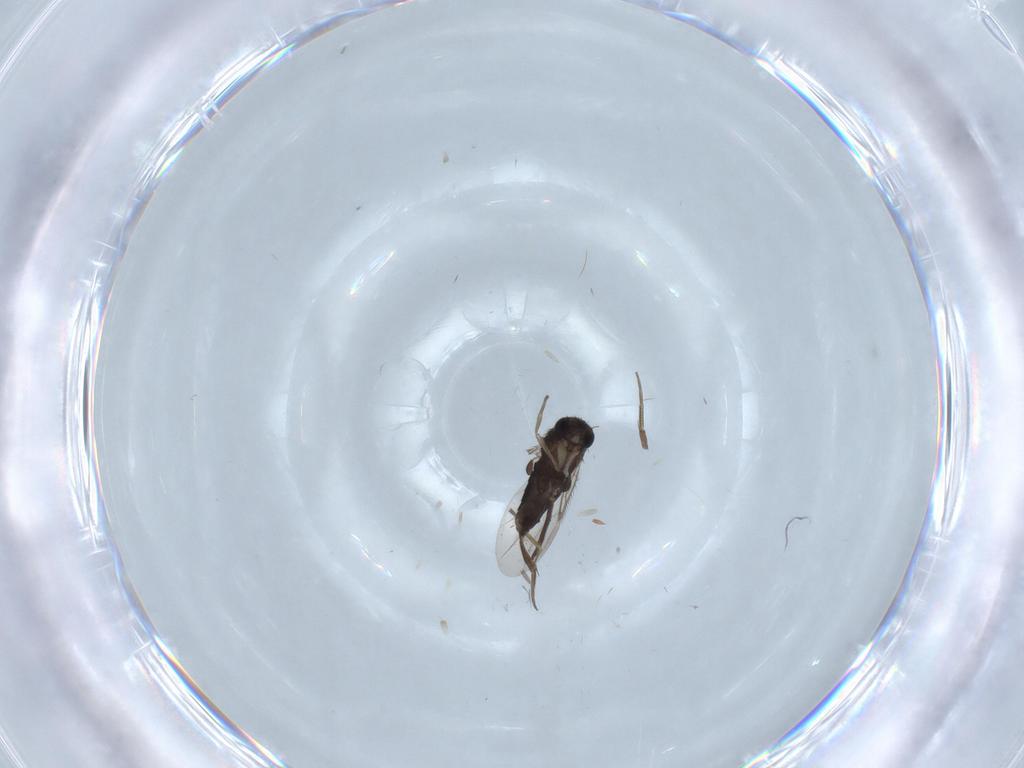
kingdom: Animalia
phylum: Arthropoda
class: Insecta
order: Diptera
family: Phoridae
